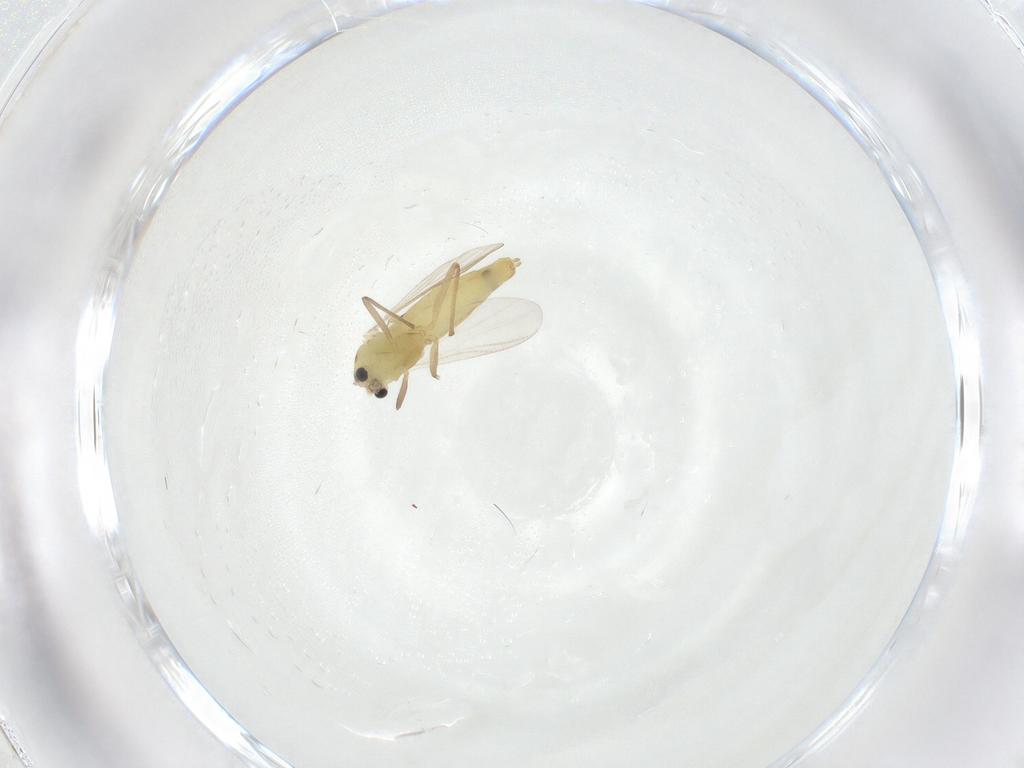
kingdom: Animalia
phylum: Arthropoda
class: Insecta
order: Diptera
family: Chironomidae
